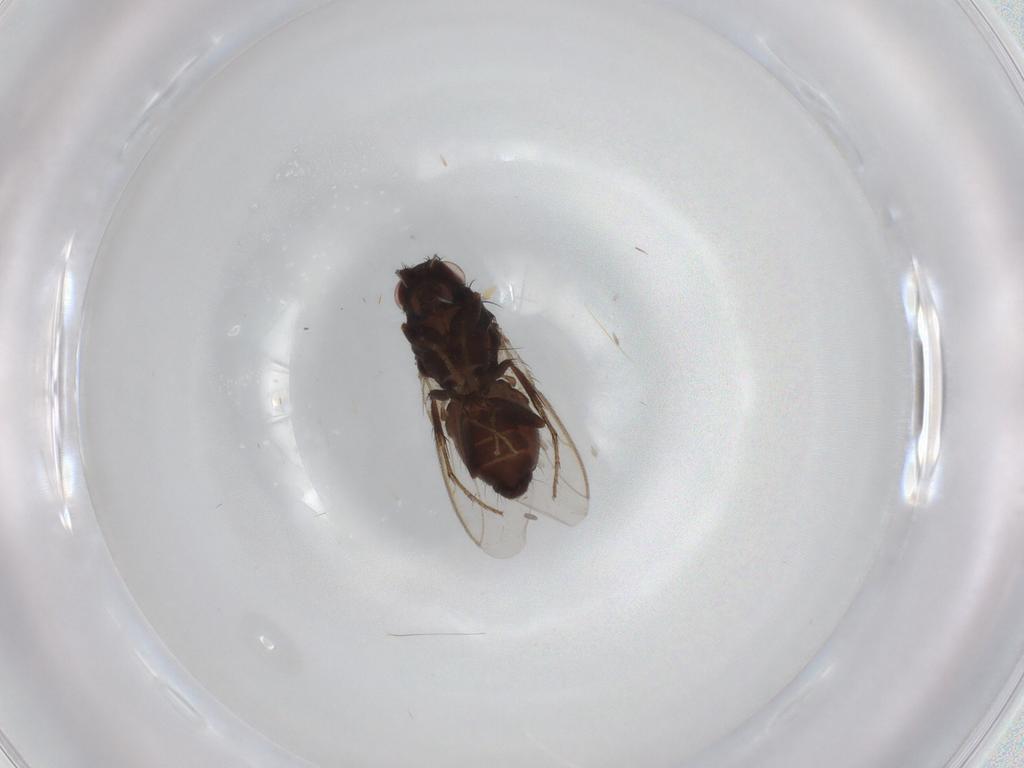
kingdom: Animalia
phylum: Arthropoda
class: Insecta
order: Diptera
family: Sphaeroceridae
